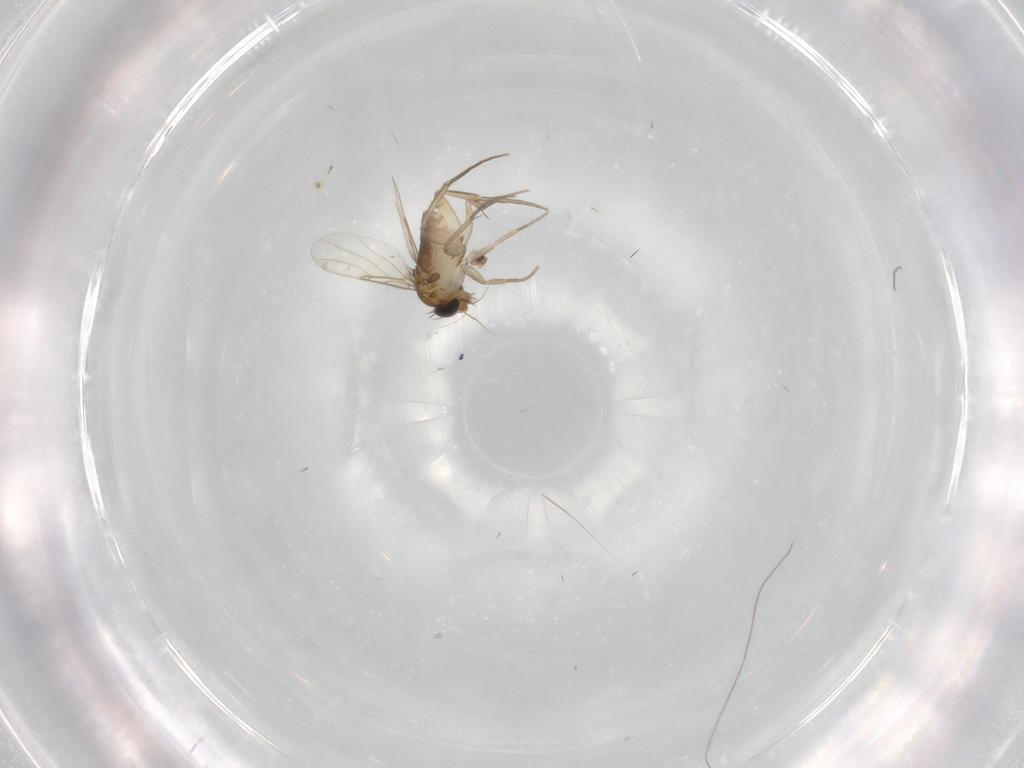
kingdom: Animalia
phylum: Arthropoda
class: Insecta
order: Diptera
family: Phoridae
